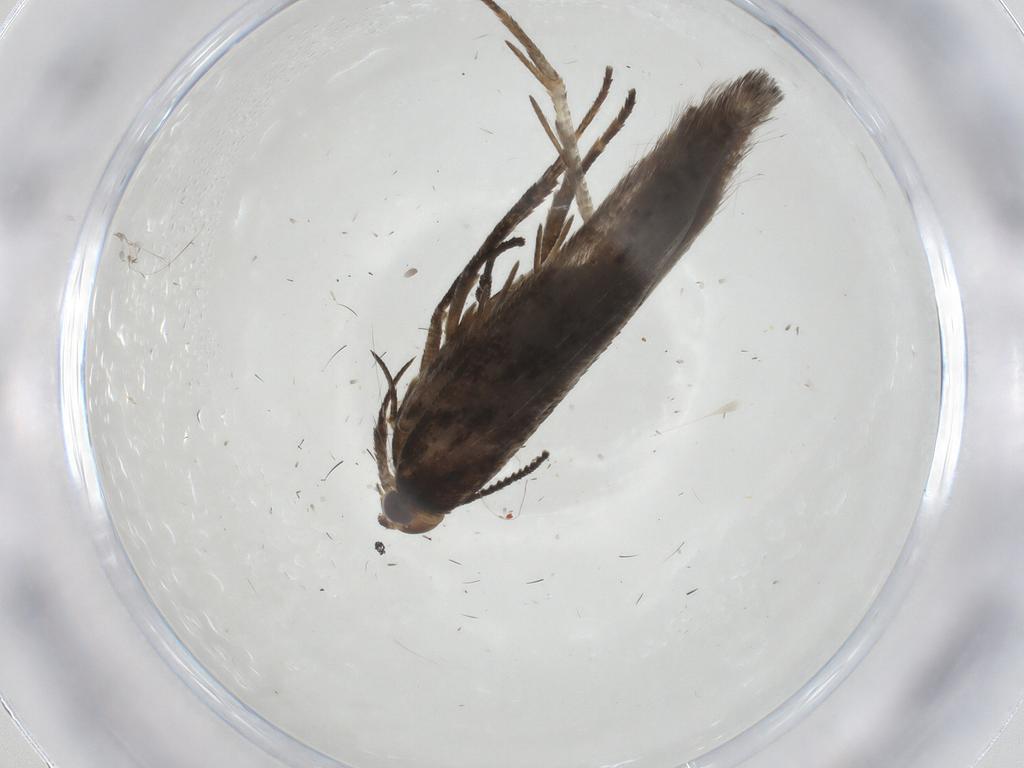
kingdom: Animalia
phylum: Arthropoda
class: Insecta
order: Lepidoptera
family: Gelechiidae
